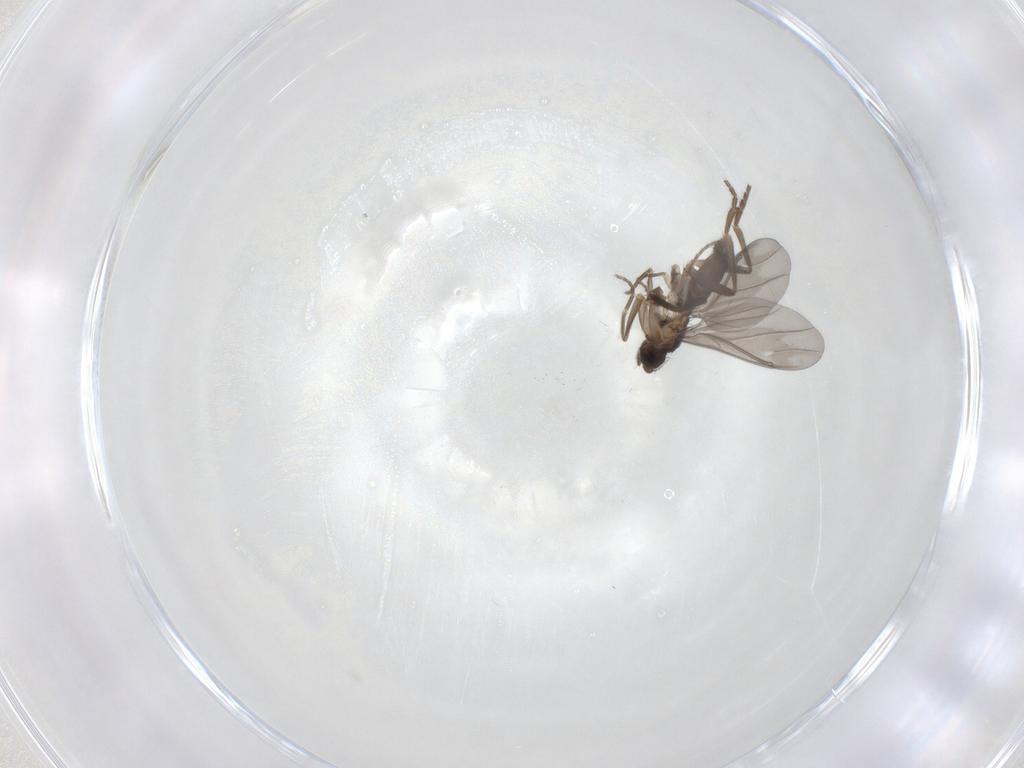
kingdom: Animalia
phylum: Arthropoda
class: Insecta
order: Diptera
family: Phoridae
